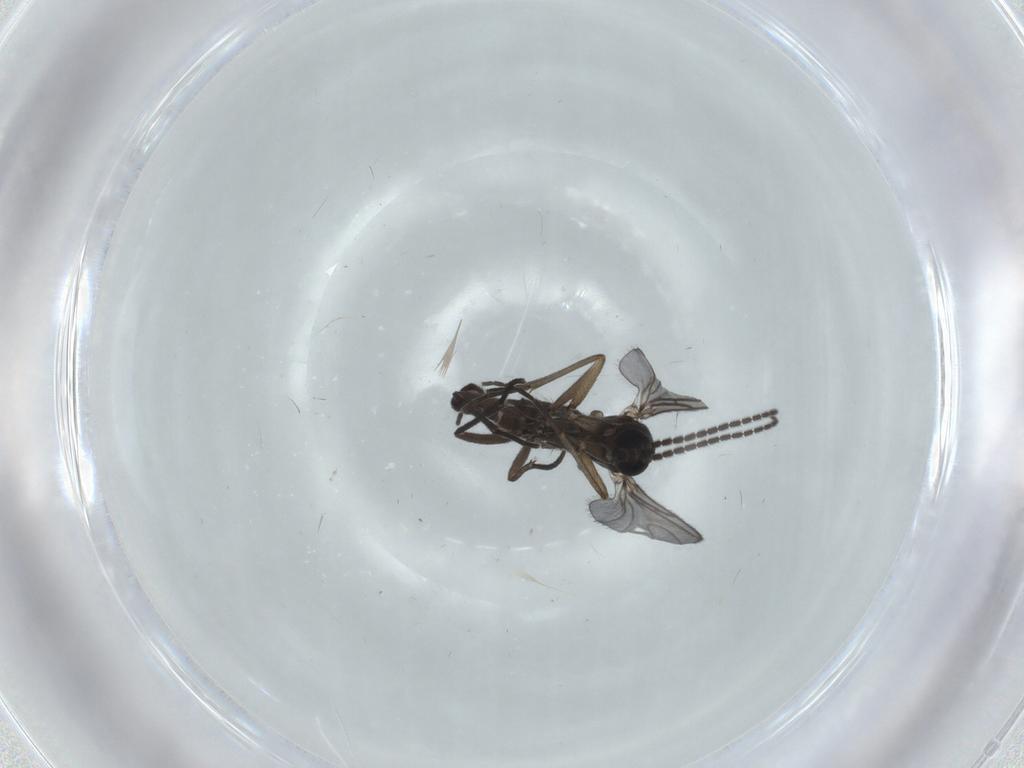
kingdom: Animalia
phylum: Arthropoda
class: Insecta
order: Diptera
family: Sciaridae
